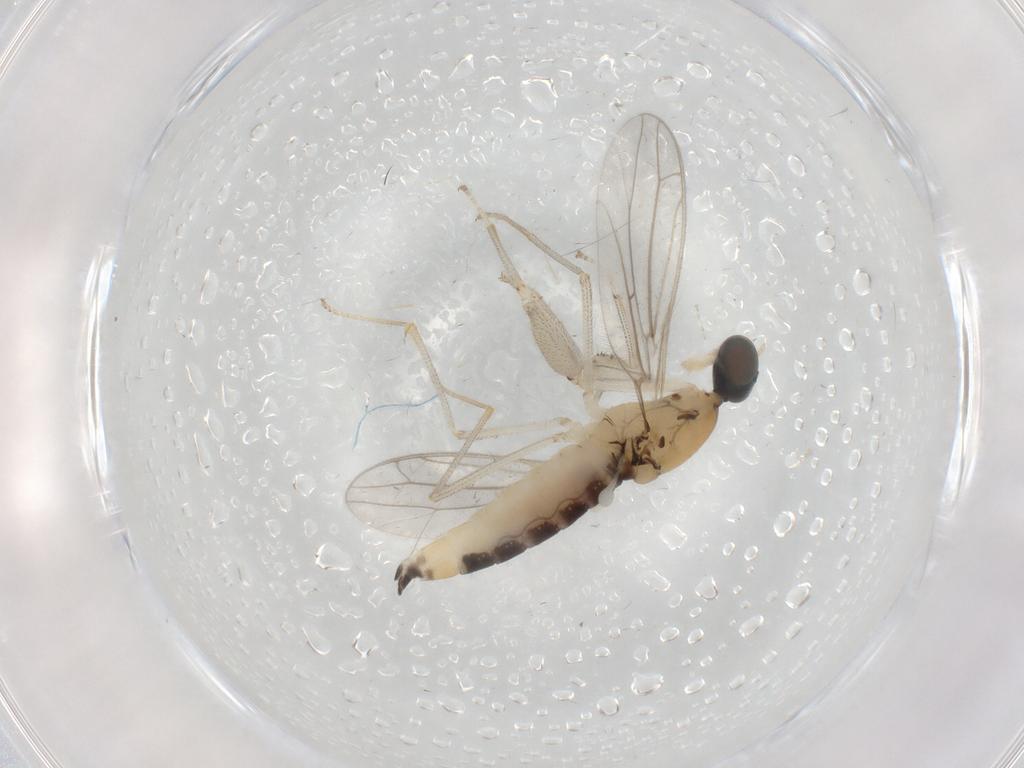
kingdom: Animalia
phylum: Arthropoda
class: Insecta
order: Diptera
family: Empididae
